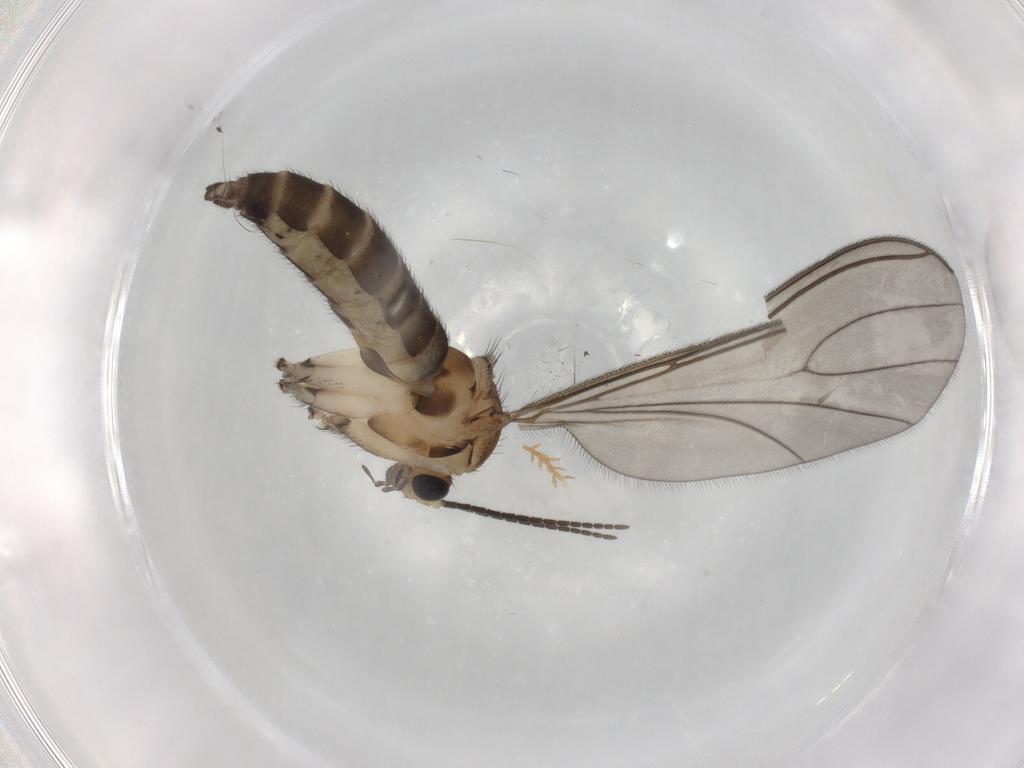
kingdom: Animalia
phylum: Arthropoda
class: Insecta
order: Diptera
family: Sciaridae
